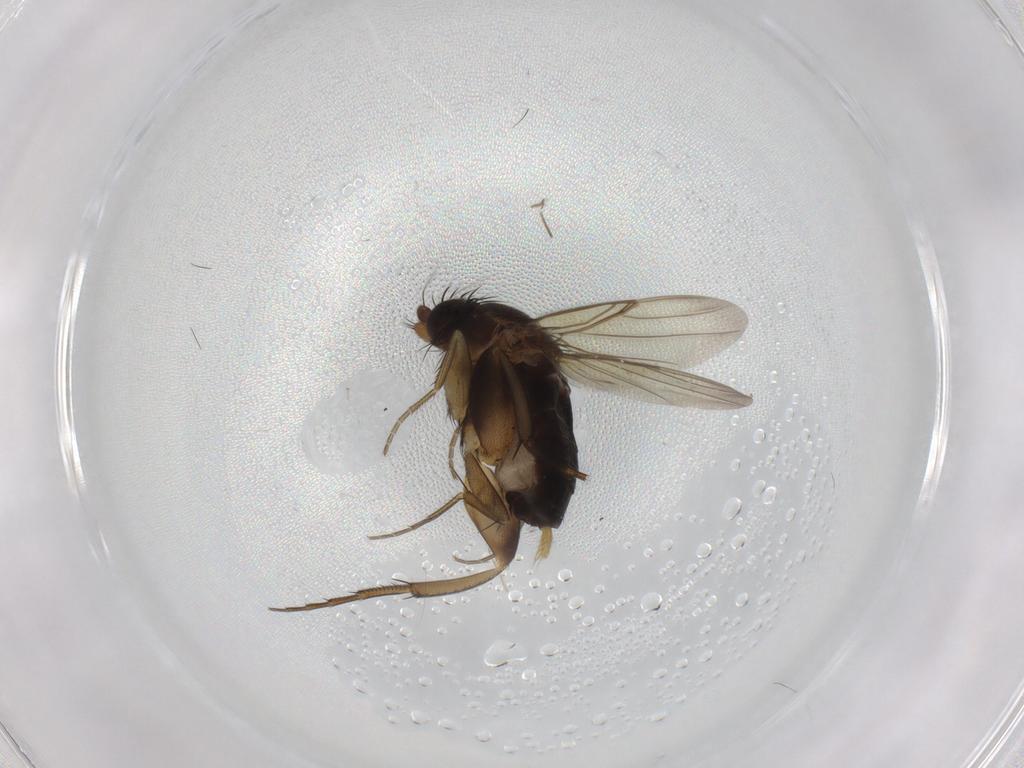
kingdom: Animalia
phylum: Arthropoda
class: Insecta
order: Diptera
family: Phoridae
